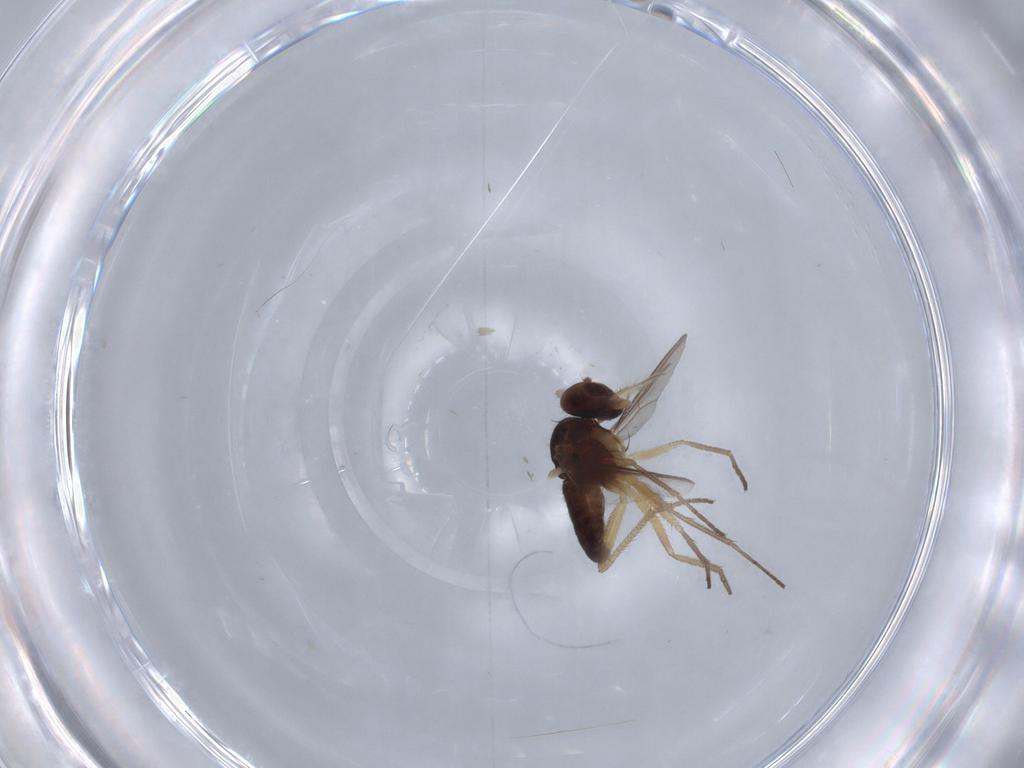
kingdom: Animalia
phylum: Arthropoda
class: Insecta
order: Diptera
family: Dolichopodidae
